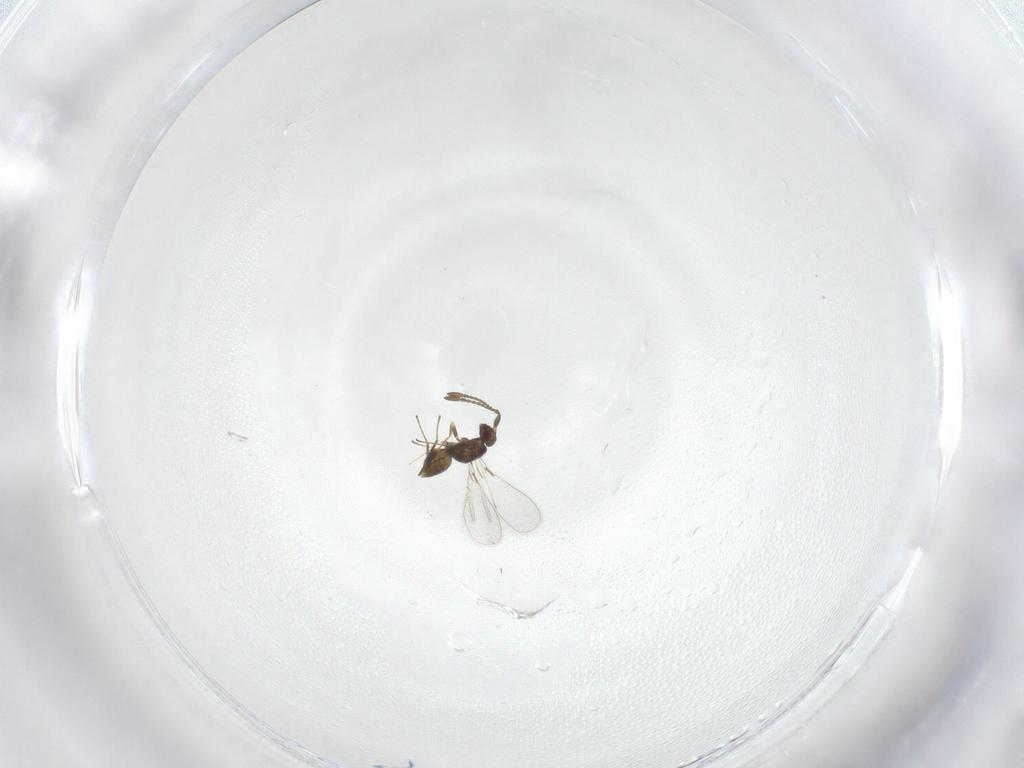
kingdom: Animalia
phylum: Arthropoda
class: Insecta
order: Hymenoptera
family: Mymaridae
